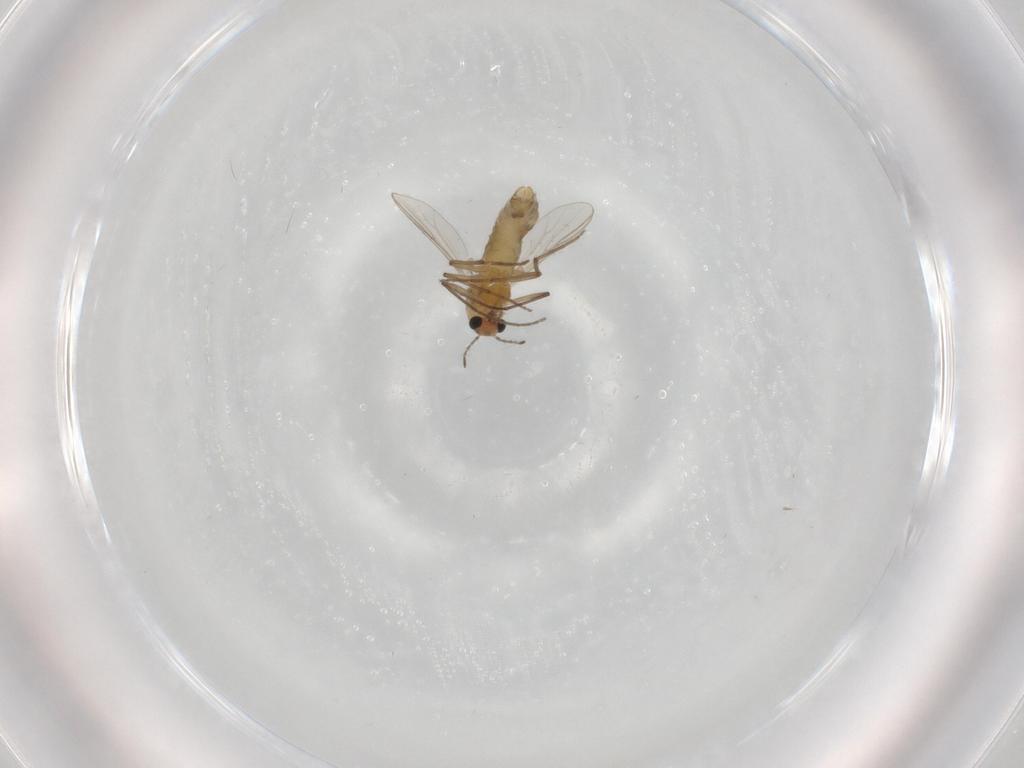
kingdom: Animalia
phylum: Arthropoda
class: Insecta
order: Diptera
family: Chironomidae
